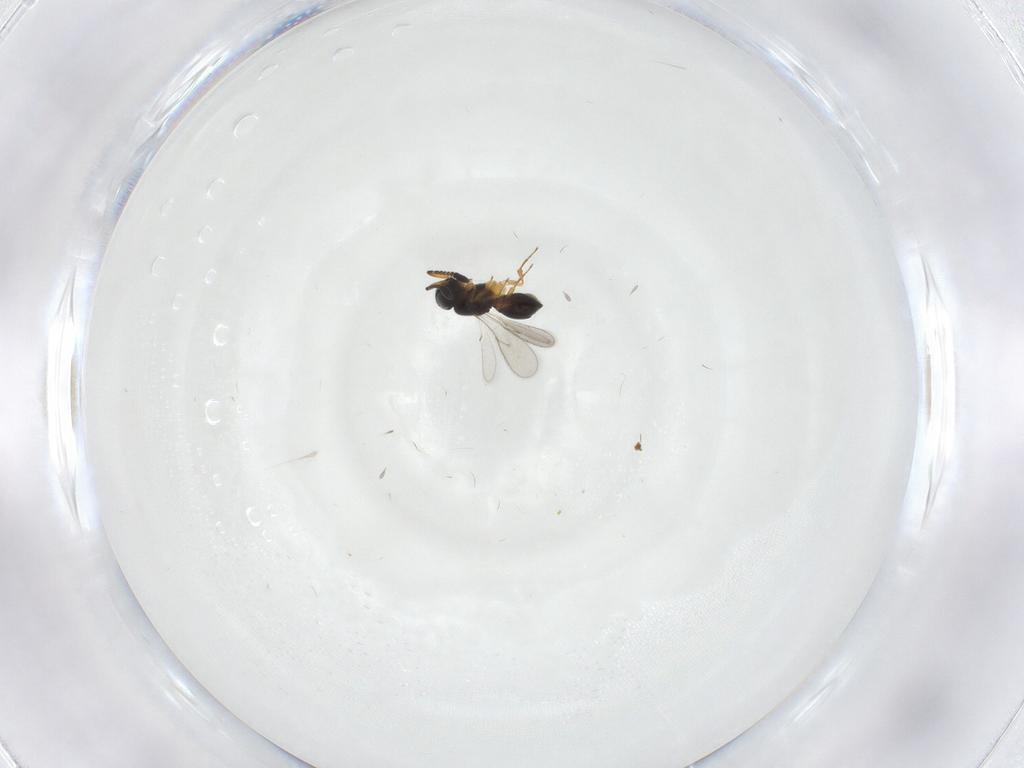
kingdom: Animalia
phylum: Arthropoda
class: Insecta
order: Hymenoptera
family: Scelionidae
